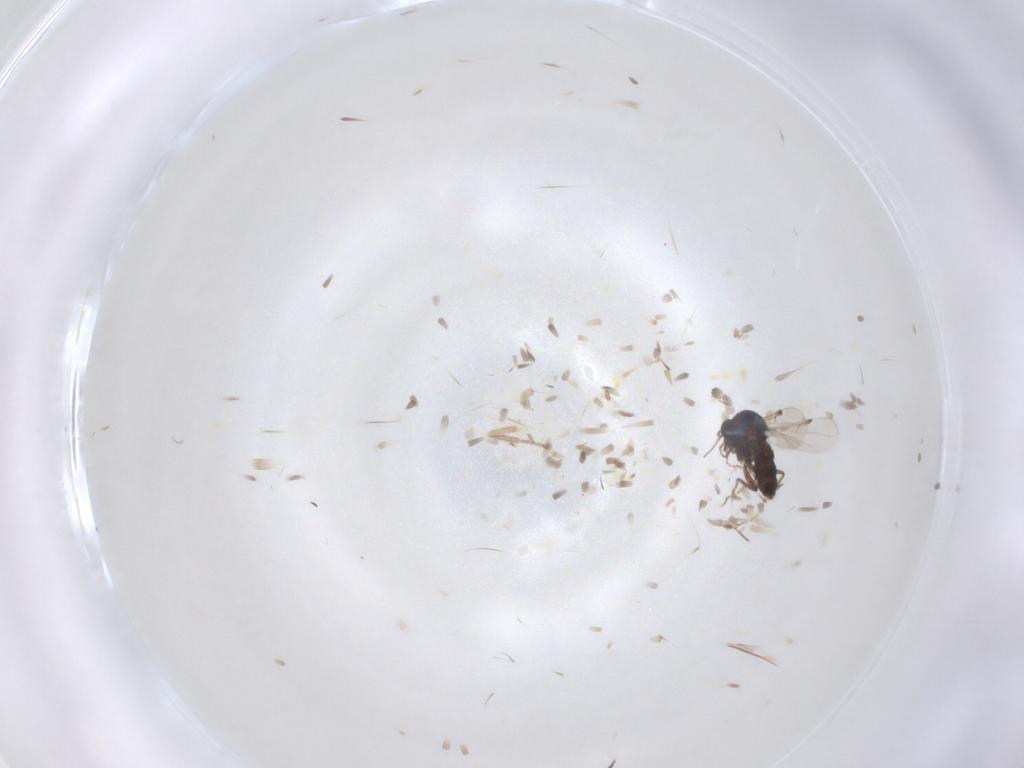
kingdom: Animalia
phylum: Arthropoda
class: Insecta
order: Diptera
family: Ceratopogonidae
